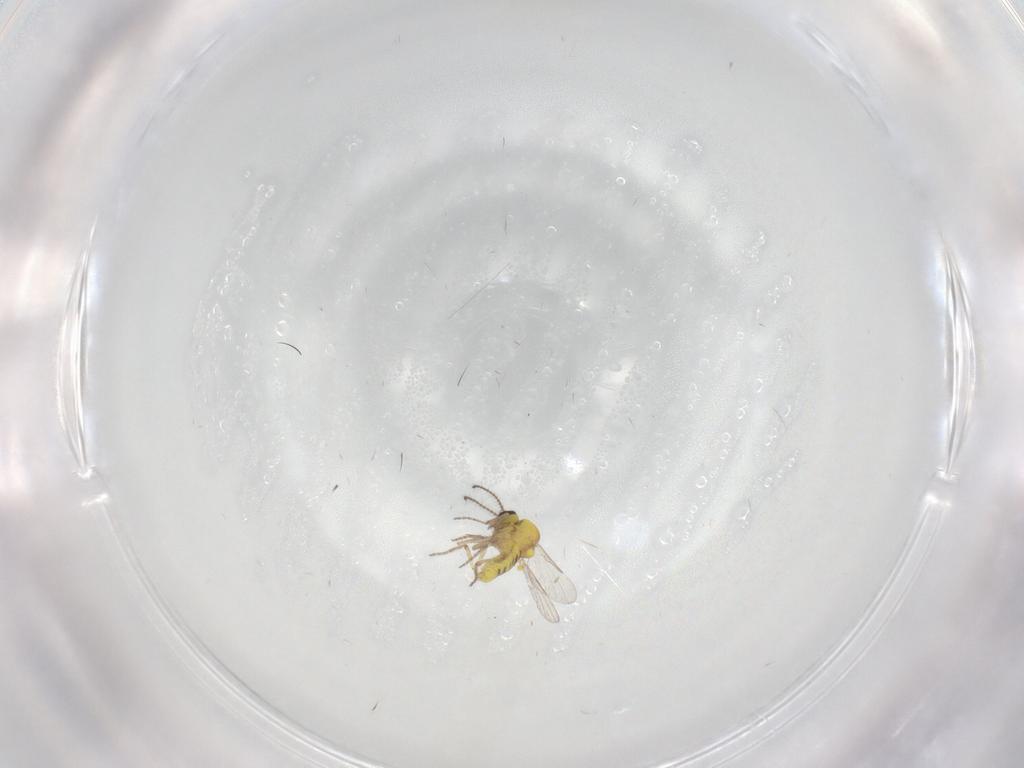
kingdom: Animalia
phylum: Arthropoda
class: Insecta
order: Diptera
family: Ceratopogonidae
